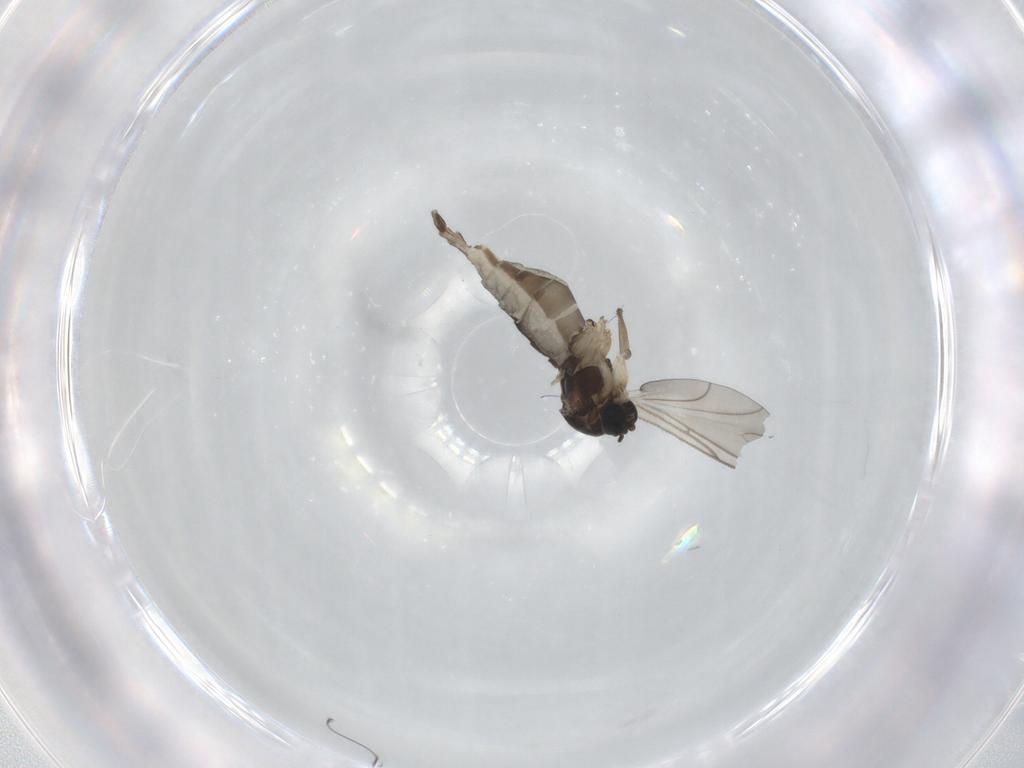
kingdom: Animalia
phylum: Arthropoda
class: Insecta
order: Diptera
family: Sciaridae
